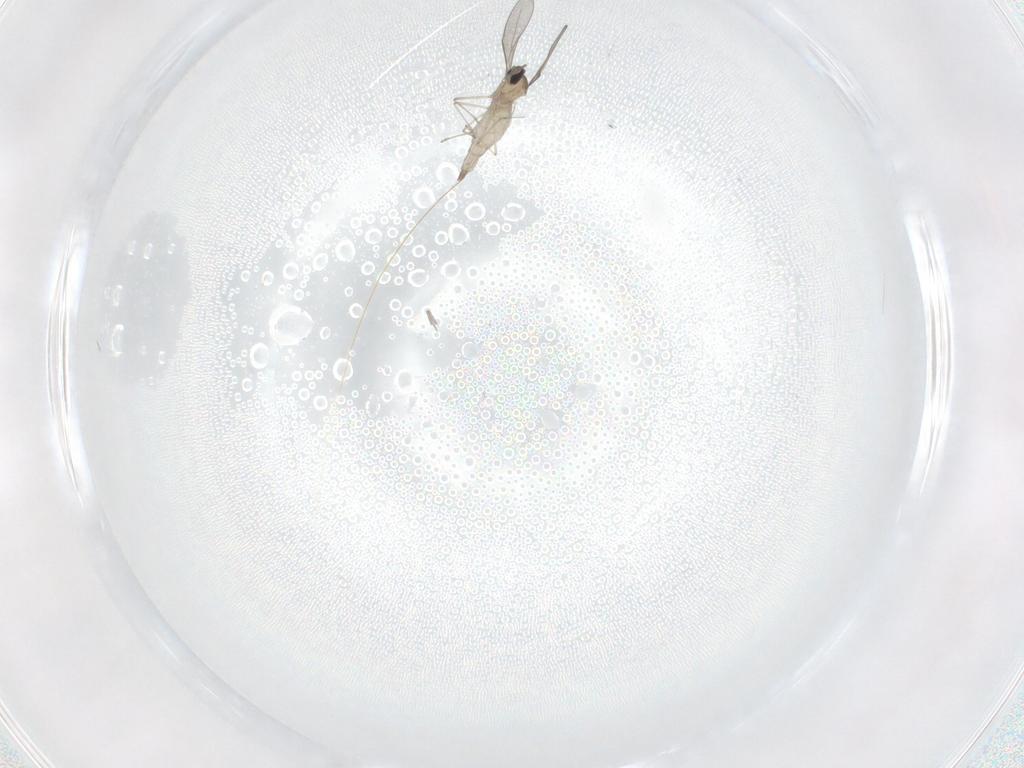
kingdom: Animalia
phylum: Arthropoda
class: Insecta
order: Diptera
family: Cecidomyiidae
